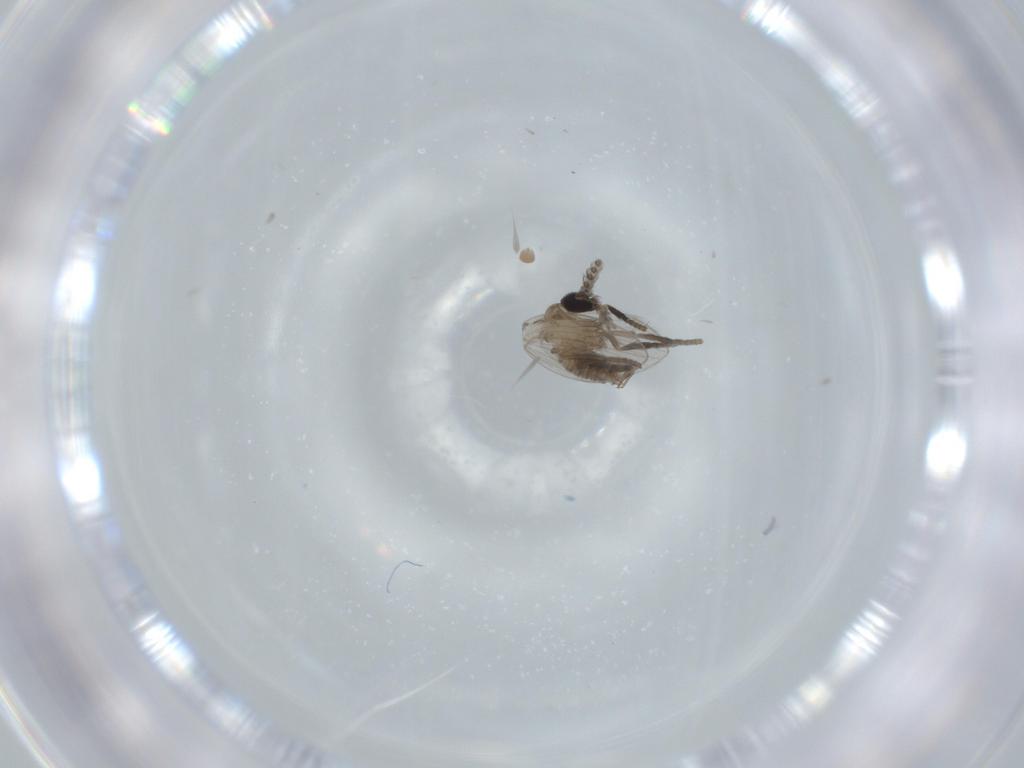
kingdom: Animalia
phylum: Arthropoda
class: Insecta
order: Diptera
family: Psychodidae
